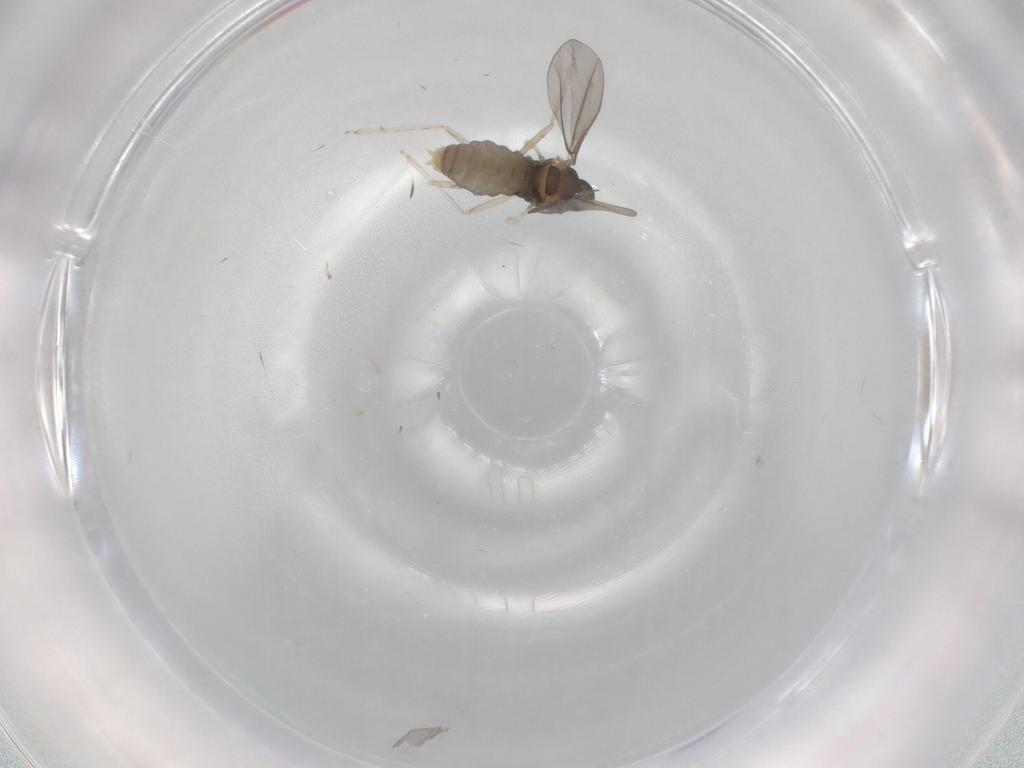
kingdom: Animalia
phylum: Arthropoda
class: Insecta
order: Diptera
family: Cecidomyiidae
